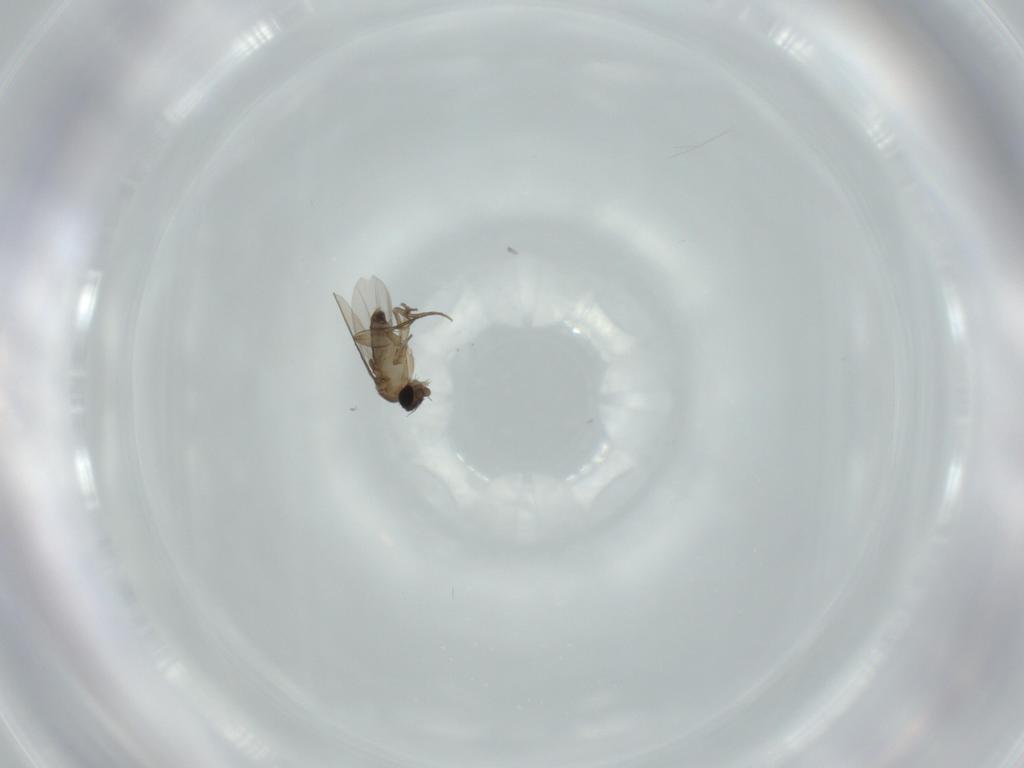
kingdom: Animalia
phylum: Arthropoda
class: Insecta
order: Diptera
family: Phoridae
